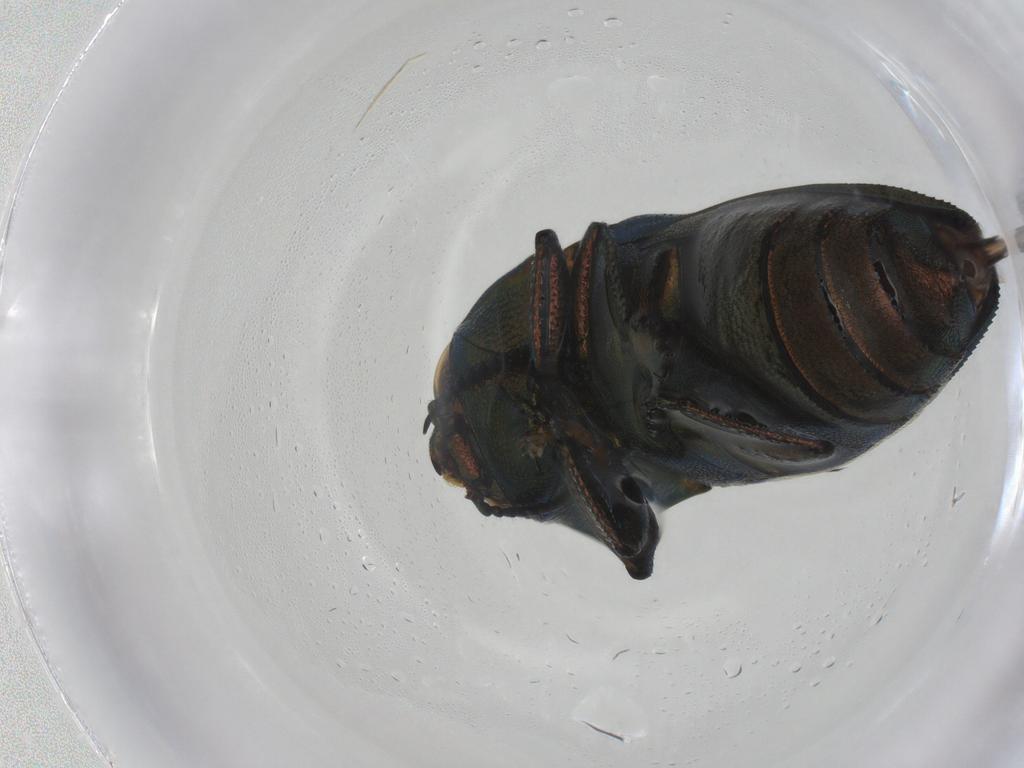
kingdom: Animalia
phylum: Arthropoda
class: Insecta
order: Coleoptera
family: Buprestidae
